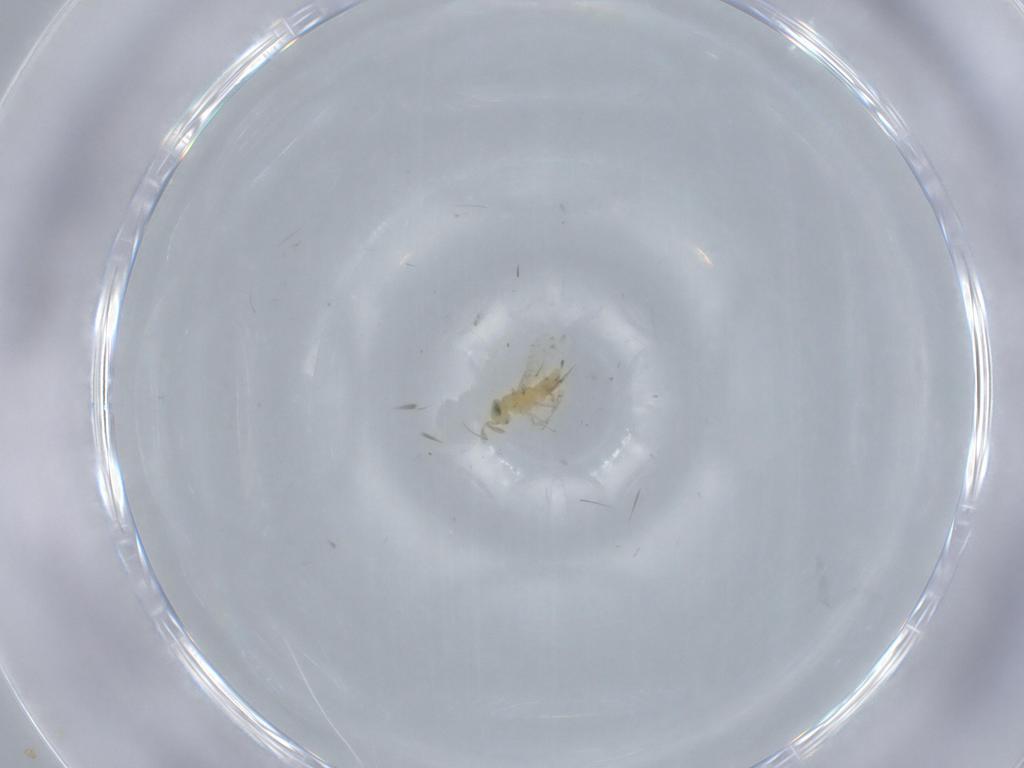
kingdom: Animalia
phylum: Arthropoda
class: Insecta
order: Hymenoptera
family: Encyrtidae
